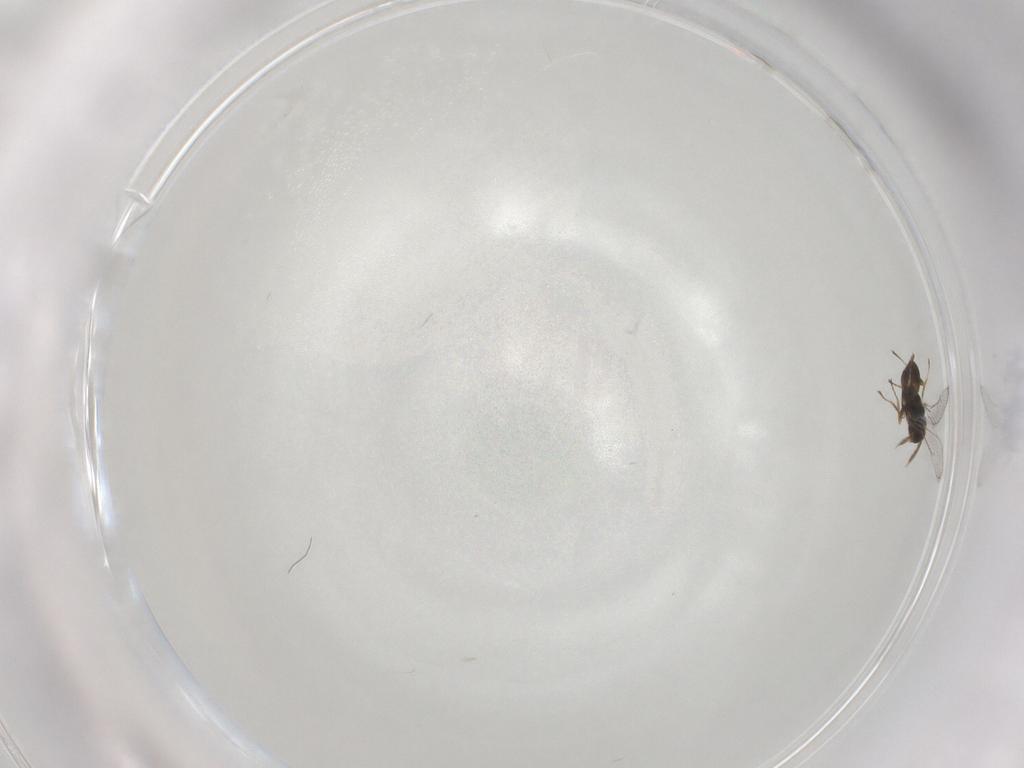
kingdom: Animalia
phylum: Arthropoda
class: Insecta
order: Hymenoptera
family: Eulophidae
